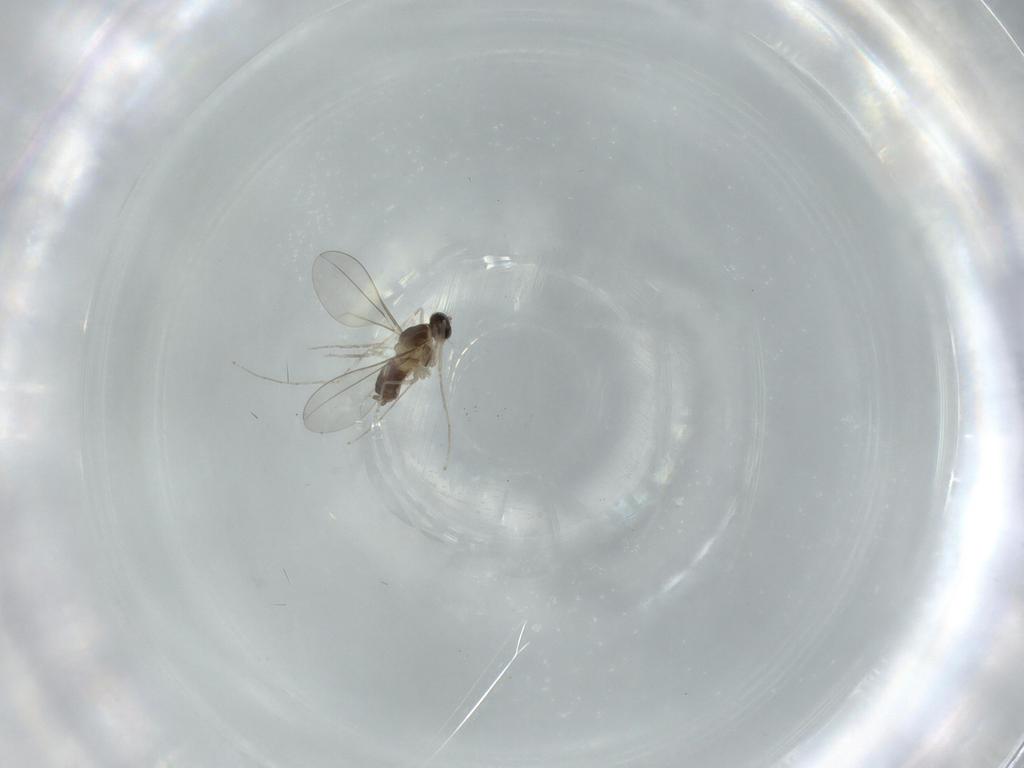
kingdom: Animalia
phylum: Arthropoda
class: Insecta
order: Diptera
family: Cecidomyiidae
